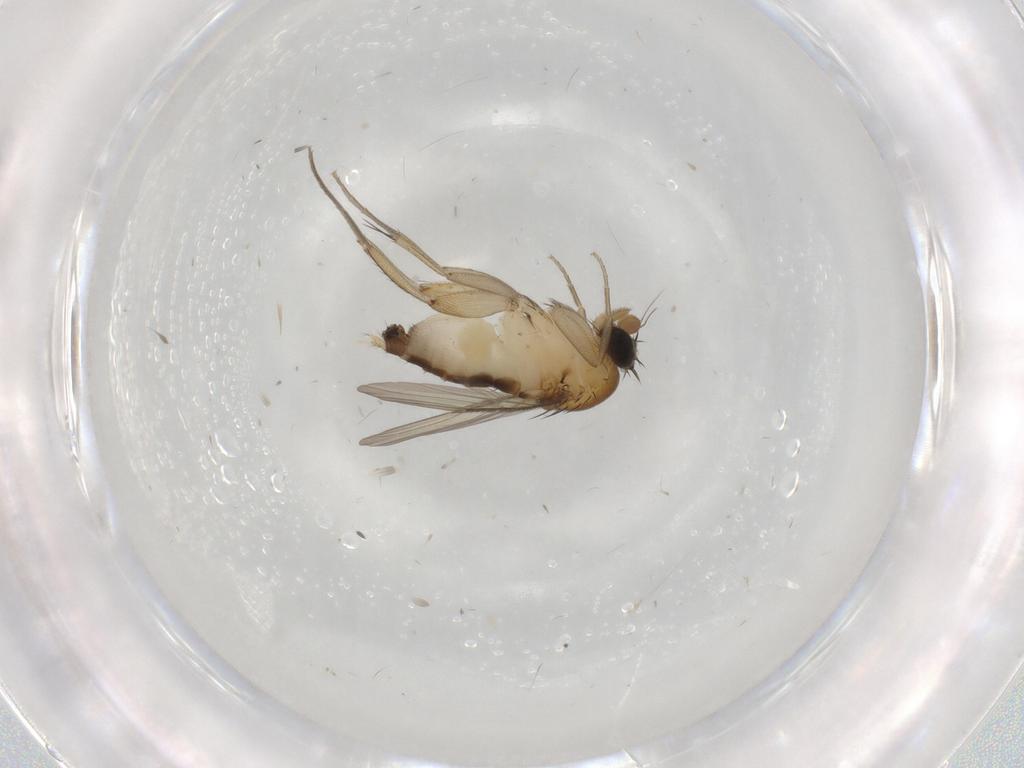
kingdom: Animalia
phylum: Arthropoda
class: Insecta
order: Diptera
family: Phoridae
